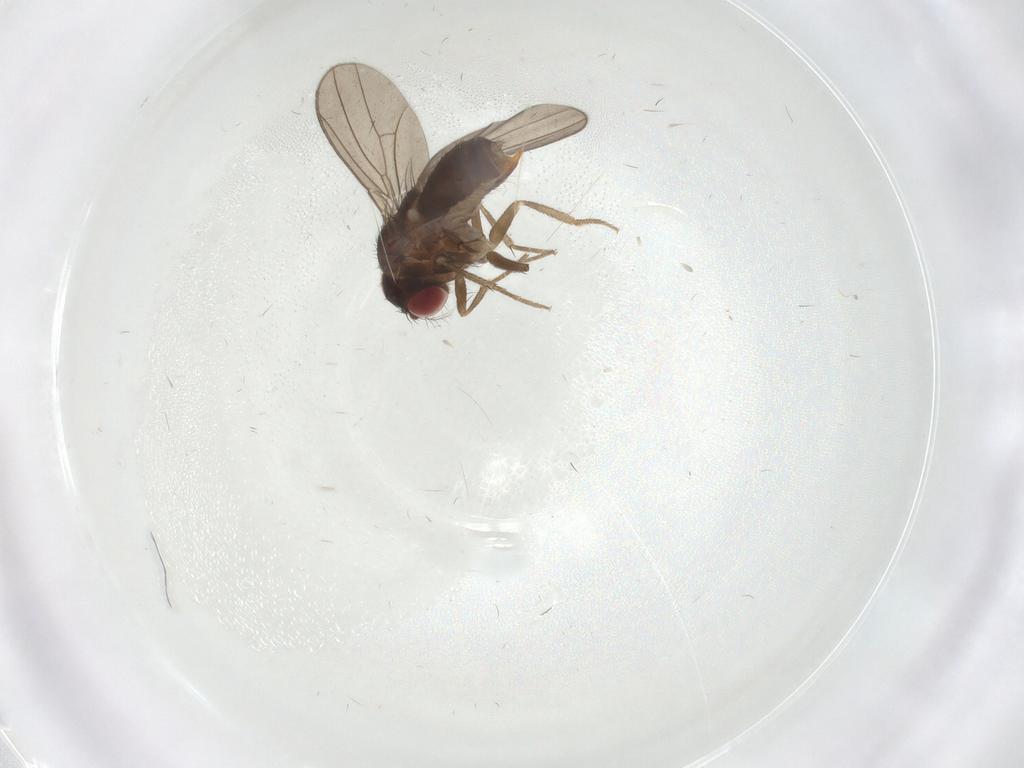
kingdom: Animalia
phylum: Arthropoda
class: Insecta
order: Diptera
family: Drosophilidae
